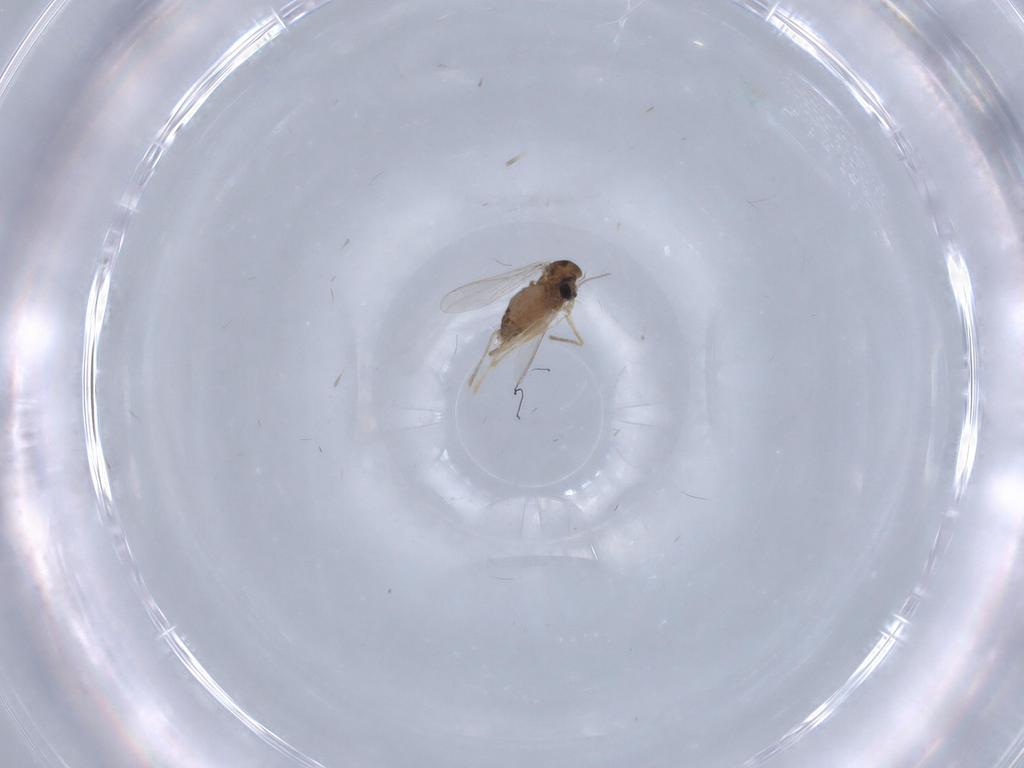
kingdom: Animalia
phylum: Arthropoda
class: Insecta
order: Diptera
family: Chironomidae
